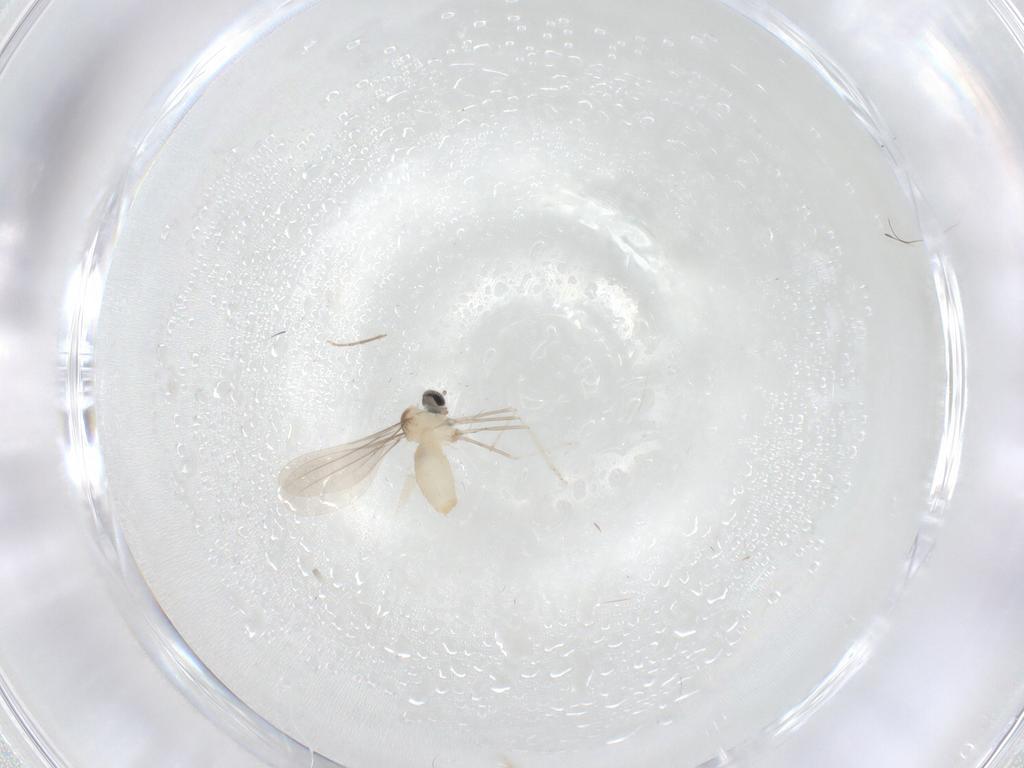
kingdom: Animalia
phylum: Arthropoda
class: Insecta
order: Diptera
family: Cecidomyiidae
